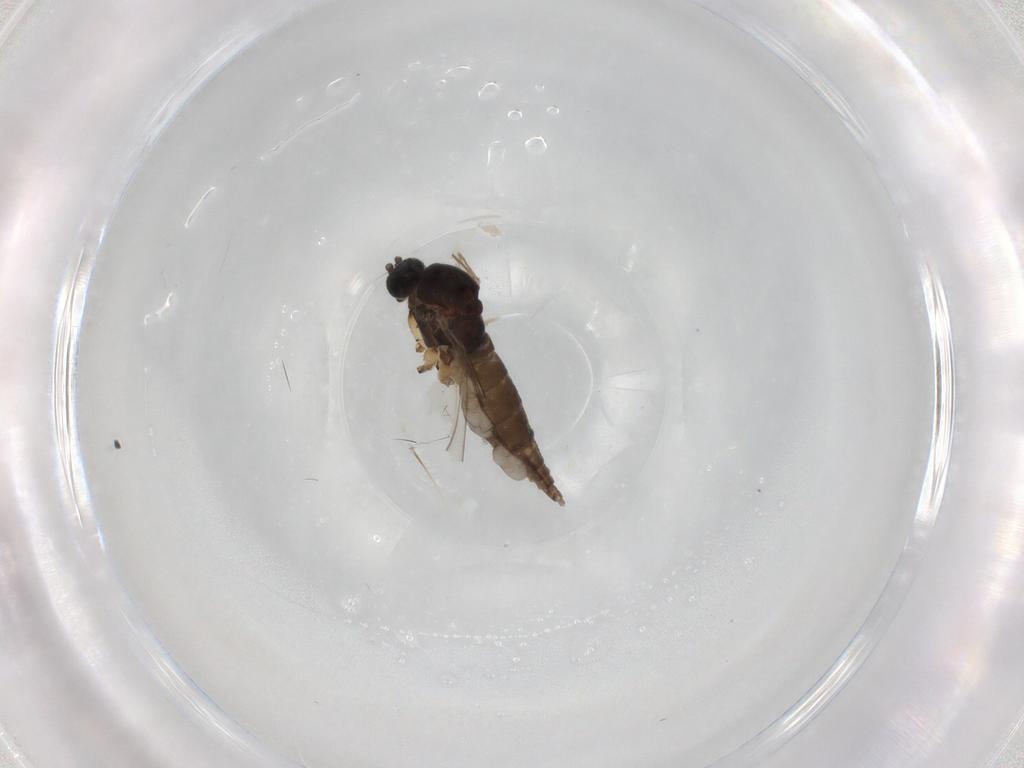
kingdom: Animalia
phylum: Arthropoda
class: Insecta
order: Diptera
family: Sciaridae
